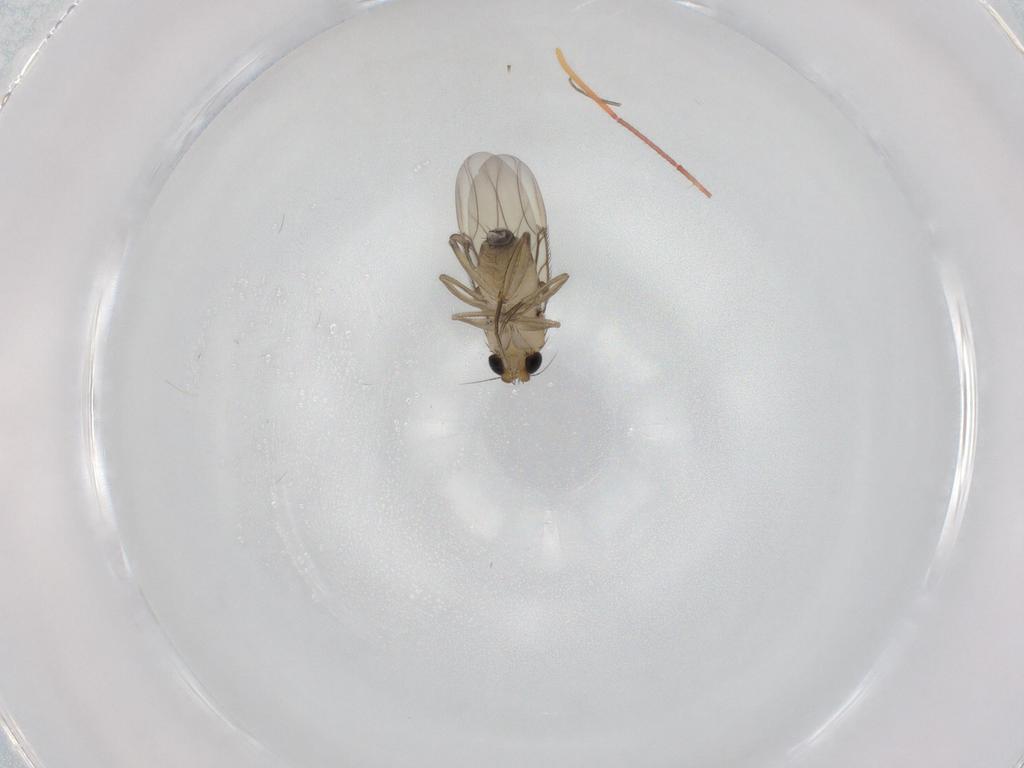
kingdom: Animalia
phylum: Arthropoda
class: Insecta
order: Diptera
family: Phoridae
